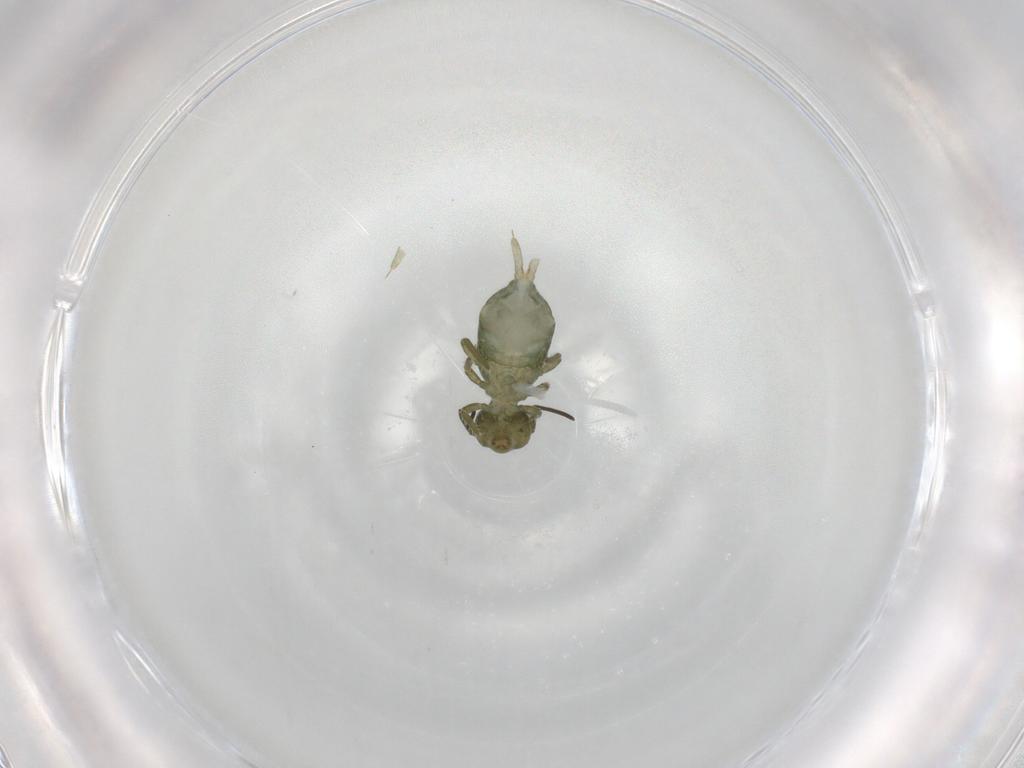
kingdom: Animalia
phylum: Arthropoda
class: Collembola
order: Symphypleona
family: Sminthuridae
